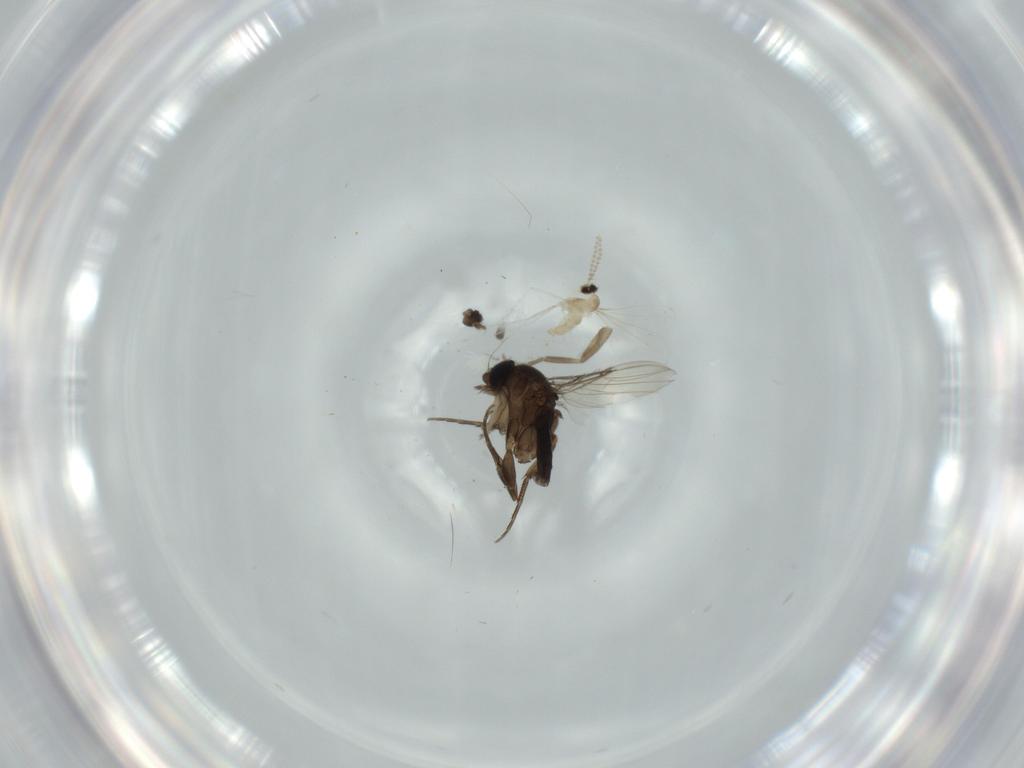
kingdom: Animalia
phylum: Arthropoda
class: Insecta
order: Diptera
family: Phoridae
